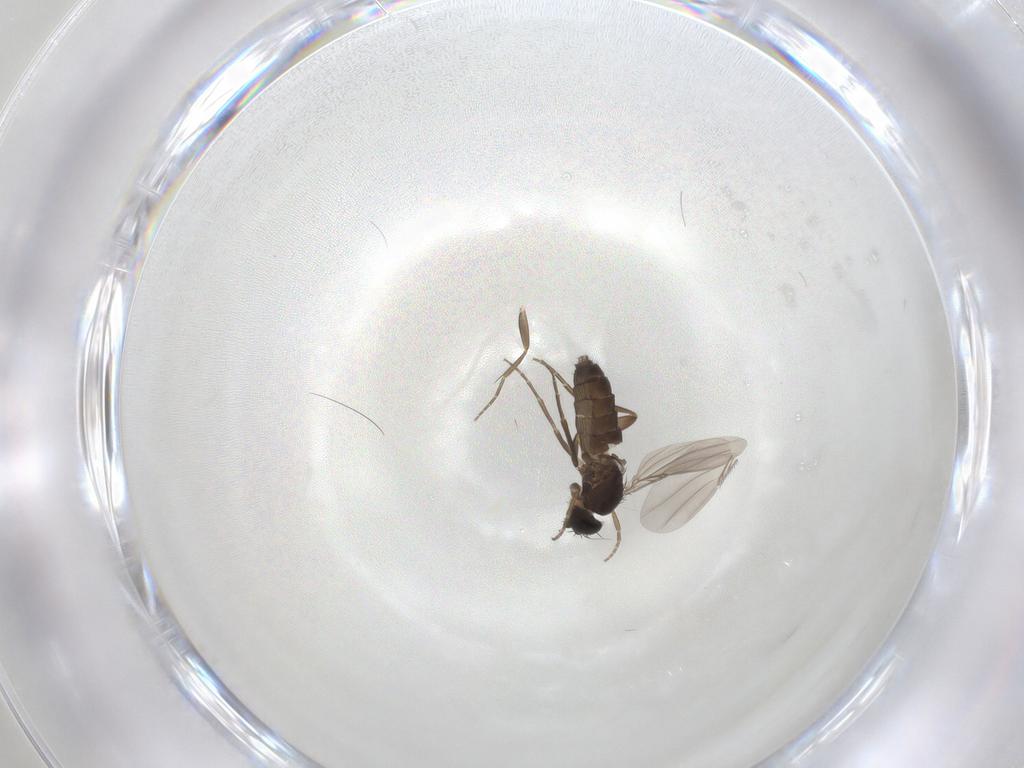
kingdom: Animalia
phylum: Arthropoda
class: Insecta
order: Diptera
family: Phoridae
